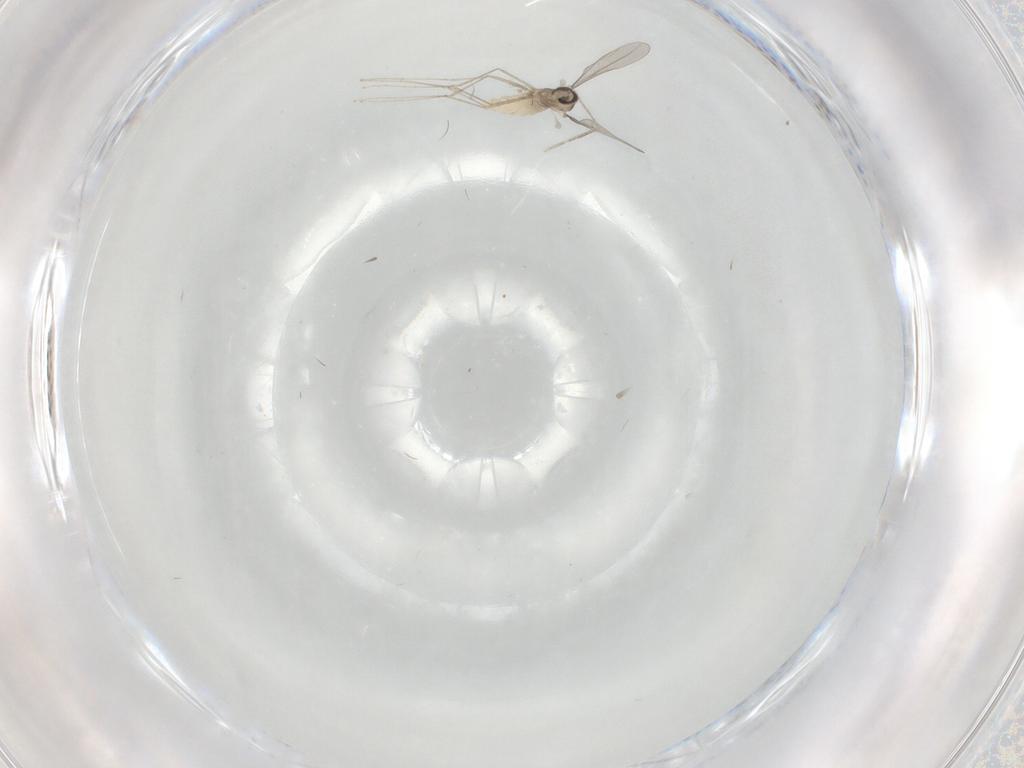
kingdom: Animalia
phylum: Arthropoda
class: Insecta
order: Diptera
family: Cecidomyiidae
